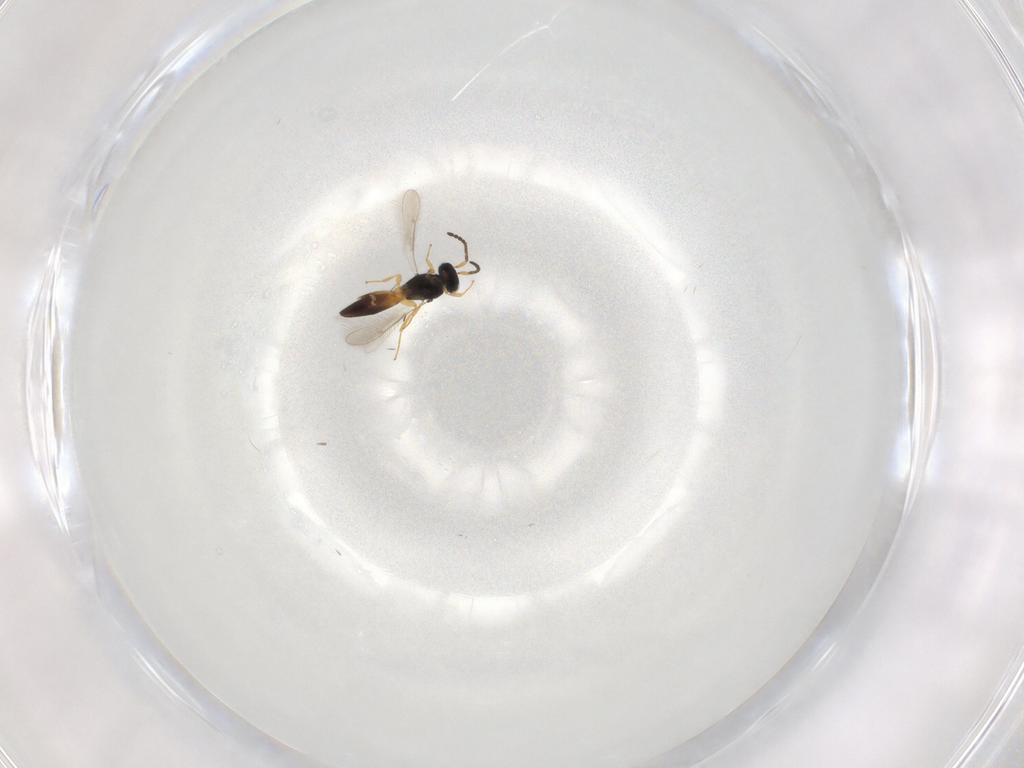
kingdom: Animalia
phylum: Arthropoda
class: Insecta
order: Hymenoptera
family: Scelionidae
